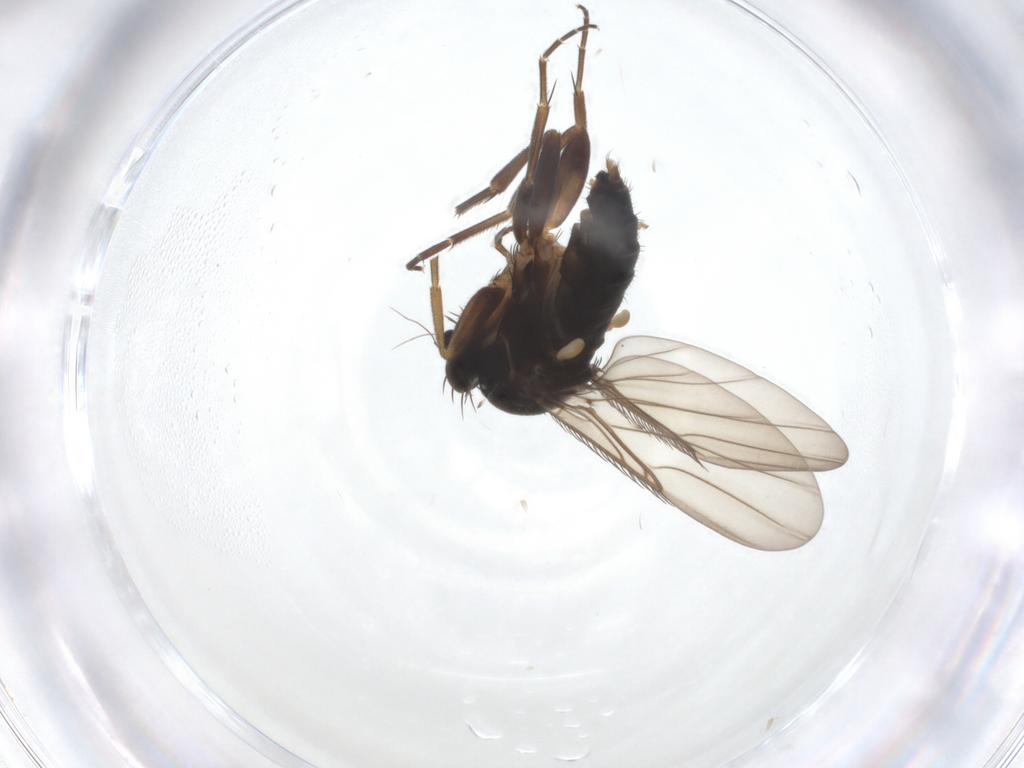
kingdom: Animalia
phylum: Arthropoda
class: Insecta
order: Diptera
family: Phoridae
